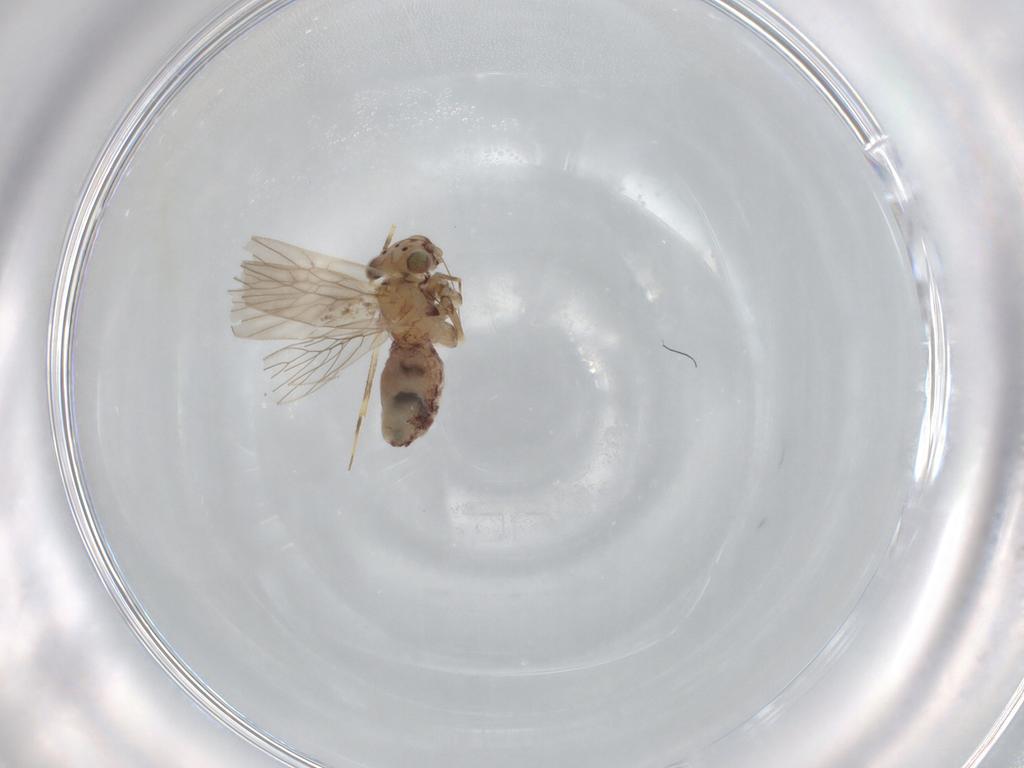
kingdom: Animalia
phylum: Arthropoda
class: Insecta
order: Psocodea
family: Lepidopsocidae
